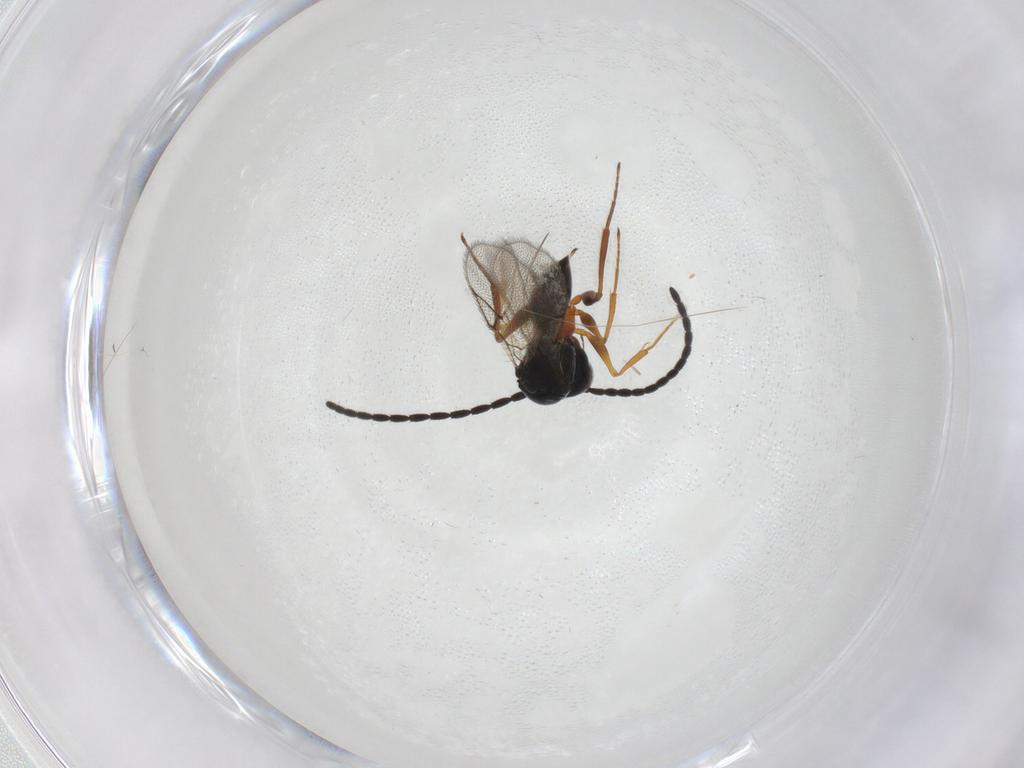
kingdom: Animalia
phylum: Arthropoda
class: Insecta
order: Hymenoptera
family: Figitidae
